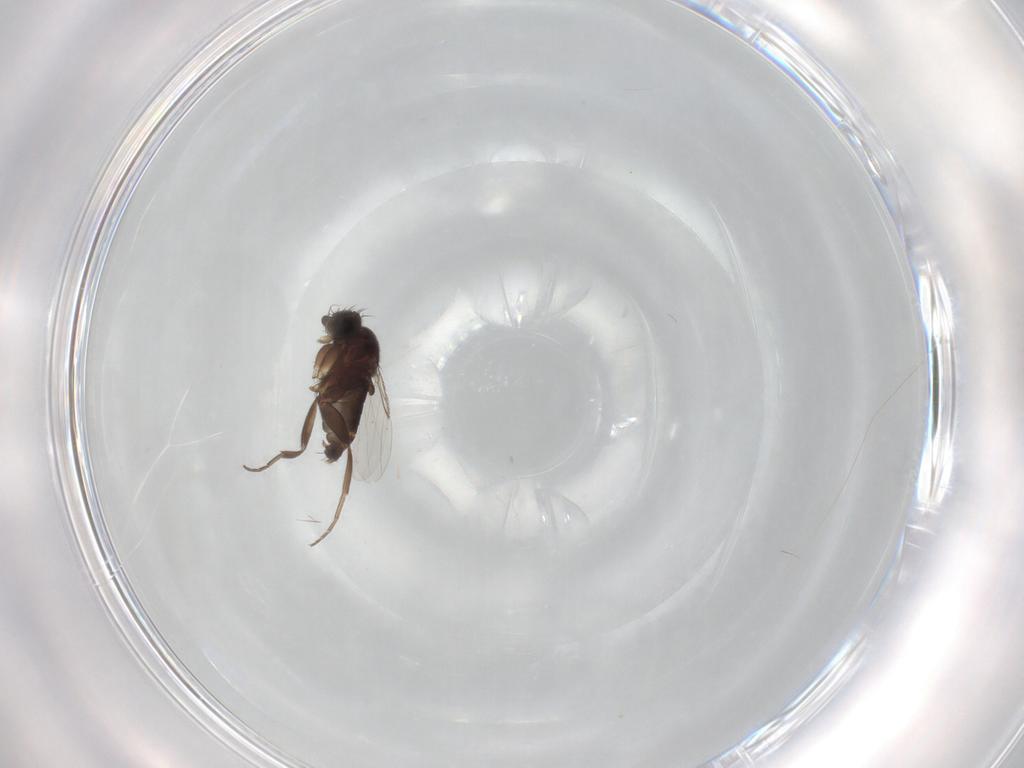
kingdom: Animalia
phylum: Arthropoda
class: Insecta
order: Diptera
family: Phoridae
